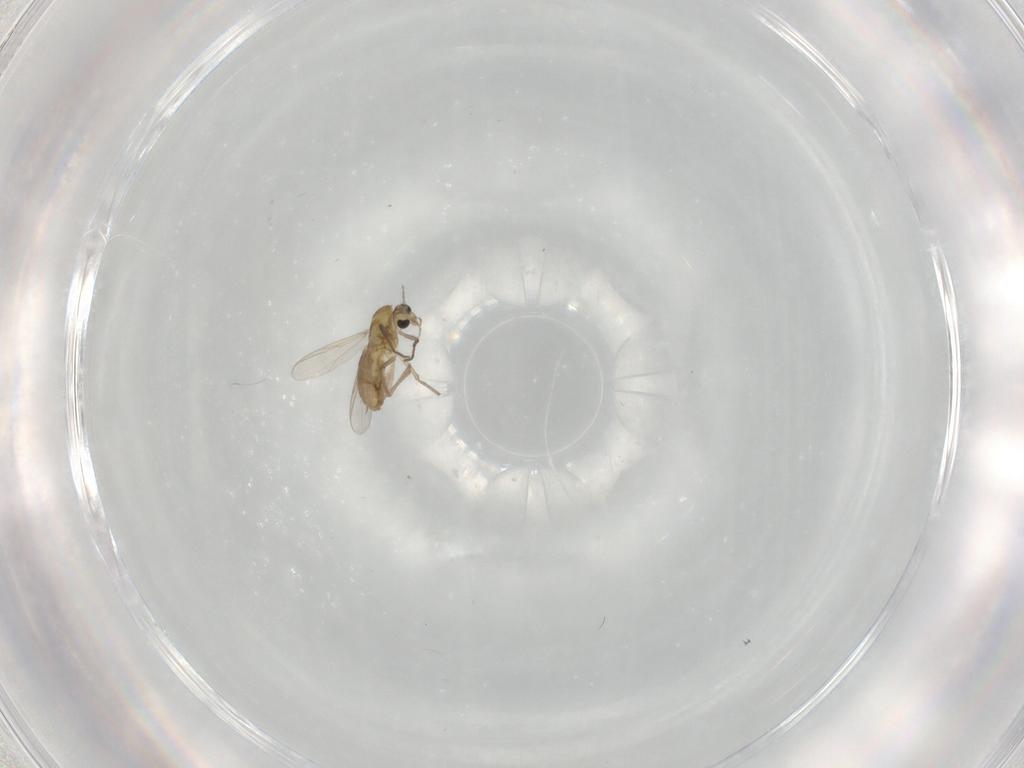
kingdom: Animalia
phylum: Arthropoda
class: Insecta
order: Diptera
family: Chironomidae
